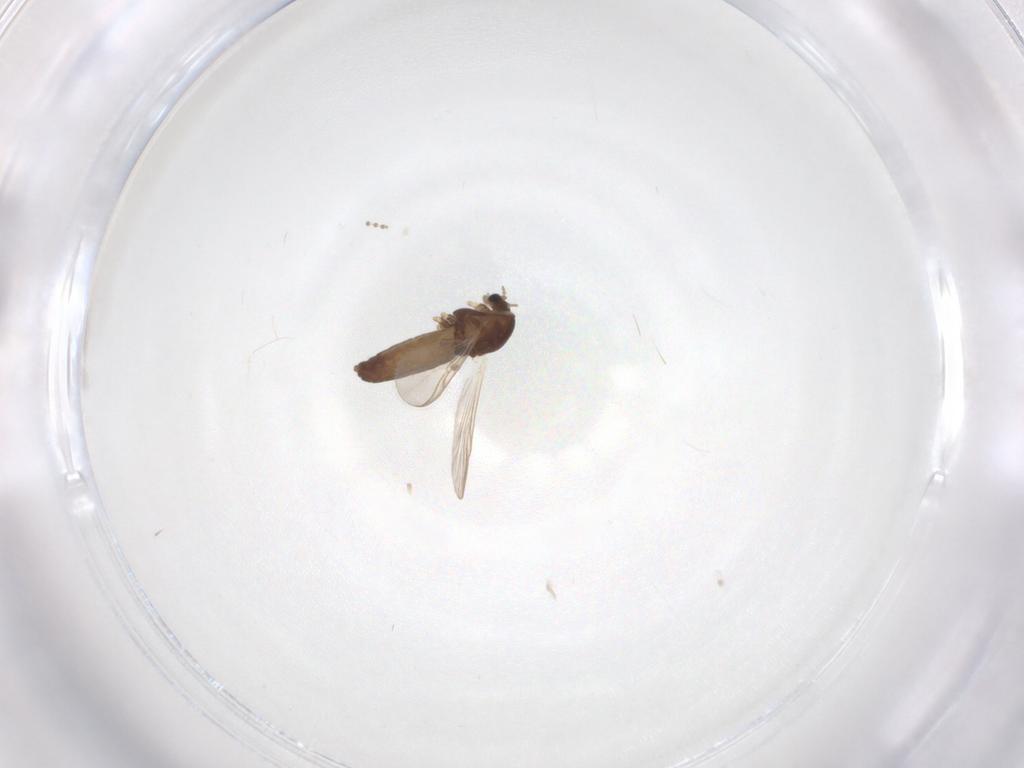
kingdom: Animalia
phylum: Arthropoda
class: Insecta
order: Diptera
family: Chironomidae
